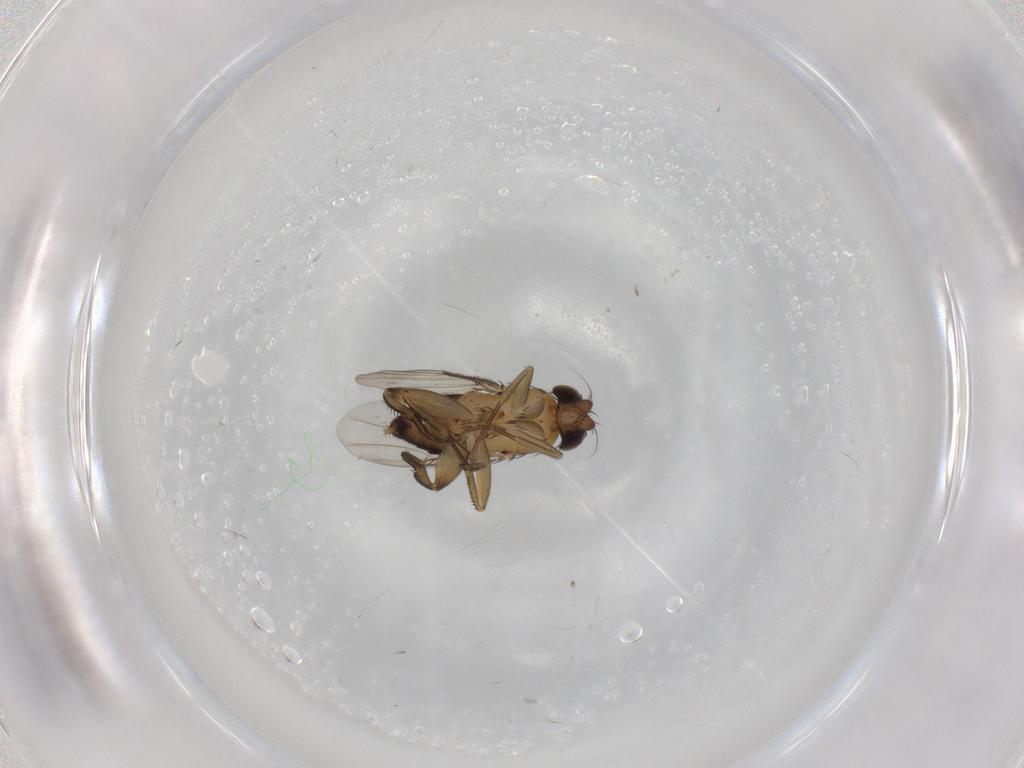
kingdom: Animalia
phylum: Arthropoda
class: Insecta
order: Diptera
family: Phoridae
